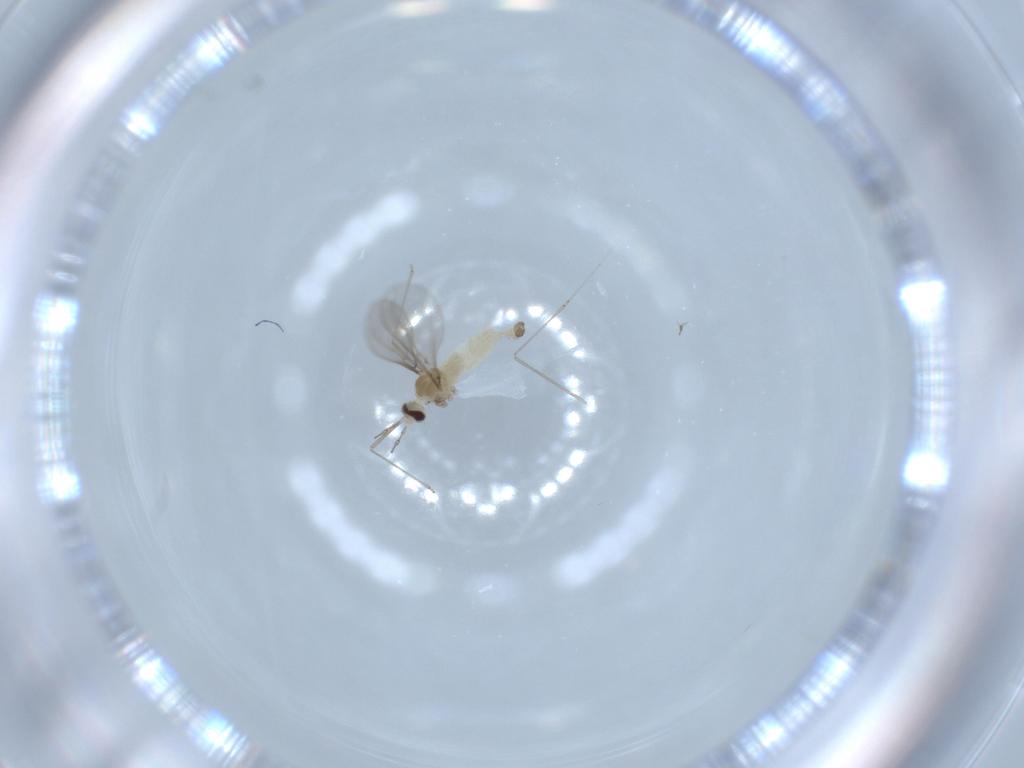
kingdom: Animalia
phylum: Arthropoda
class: Insecta
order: Diptera
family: Cecidomyiidae
